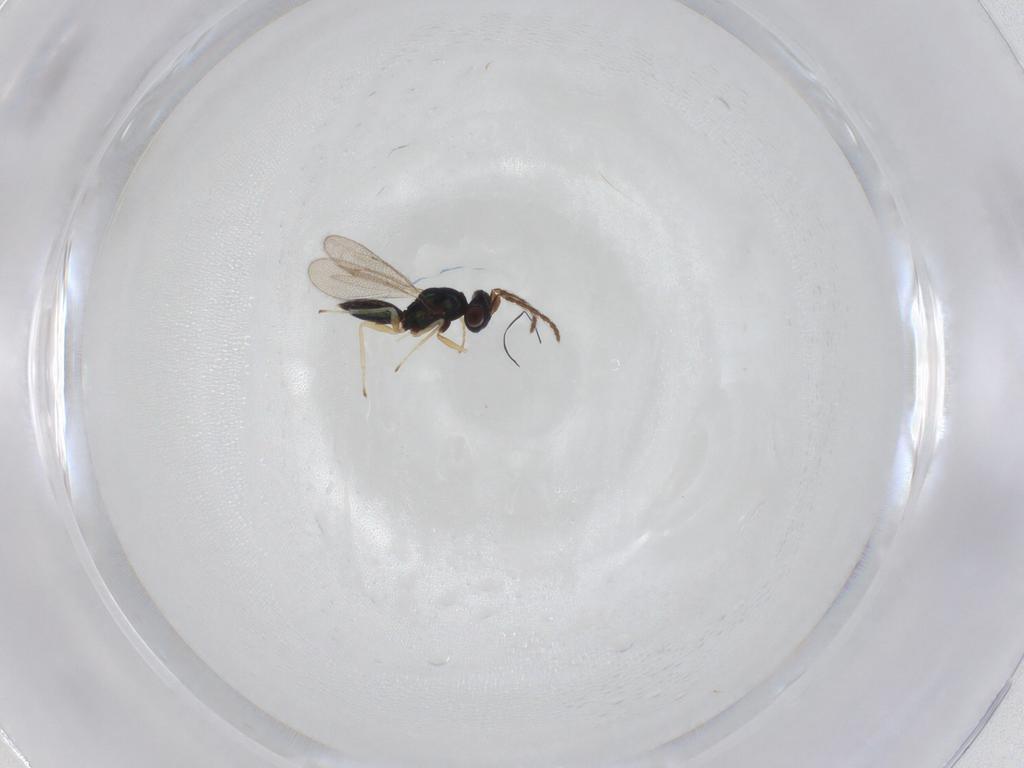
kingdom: Animalia
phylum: Arthropoda
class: Insecta
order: Hymenoptera
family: Eulophidae
